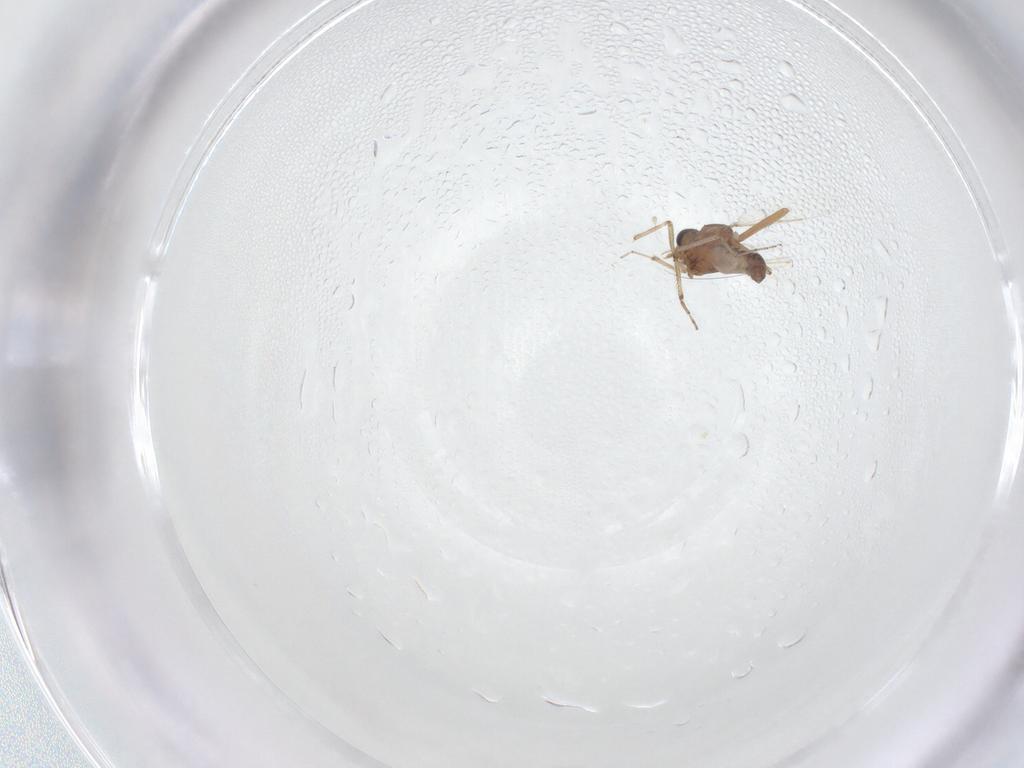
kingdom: Animalia
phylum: Arthropoda
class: Insecta
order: Diptera
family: Chironomidae
